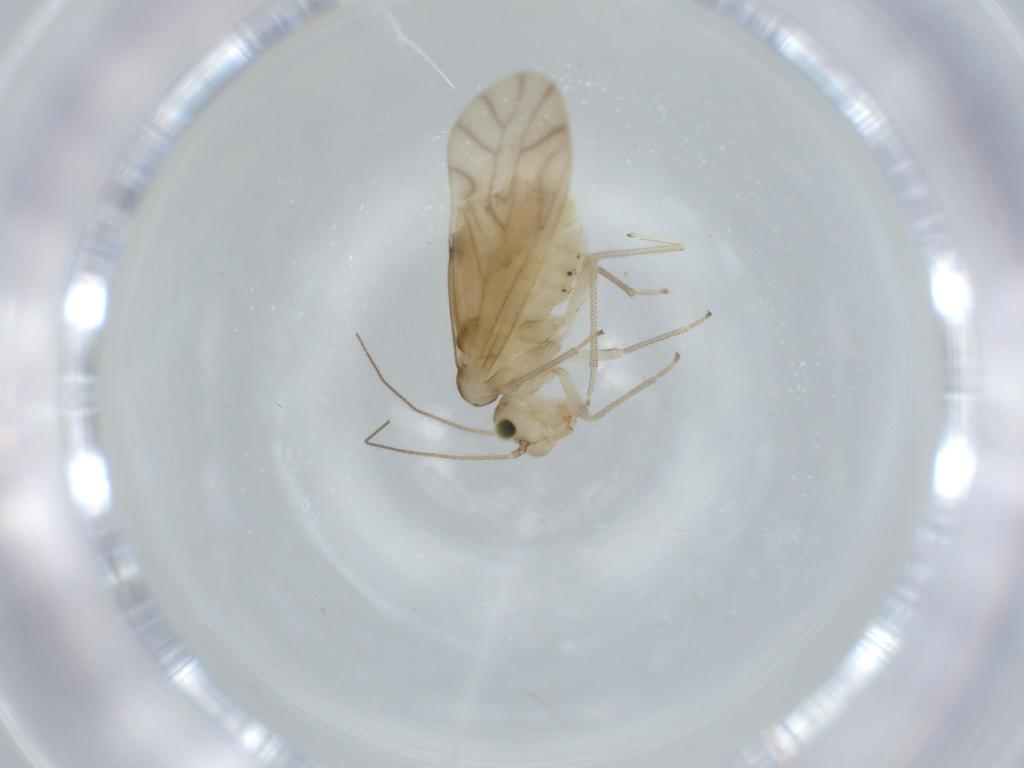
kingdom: Animalia
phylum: Arthropoda
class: Insecta
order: Psocodea
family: Caeciliusidae
